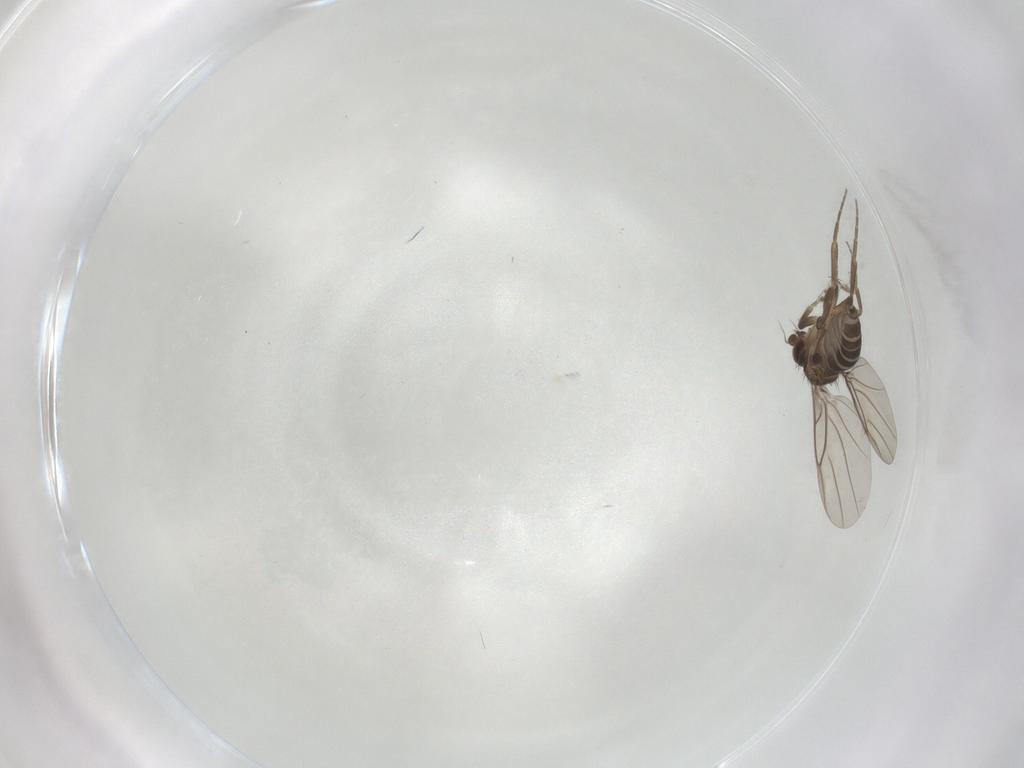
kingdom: Animalia
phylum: Arthropoda
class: Insecta
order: Diptera
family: Phoridae
